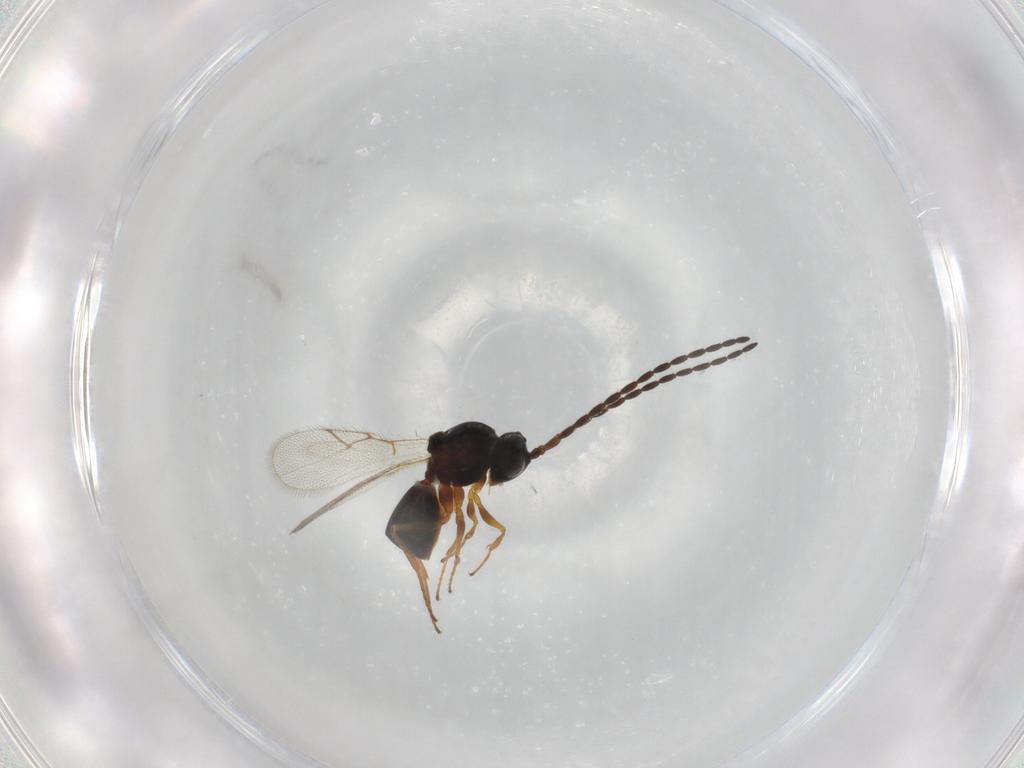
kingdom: Animalia
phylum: Arthropoda
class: Insecta
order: Hymenoptera
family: Figitidae
